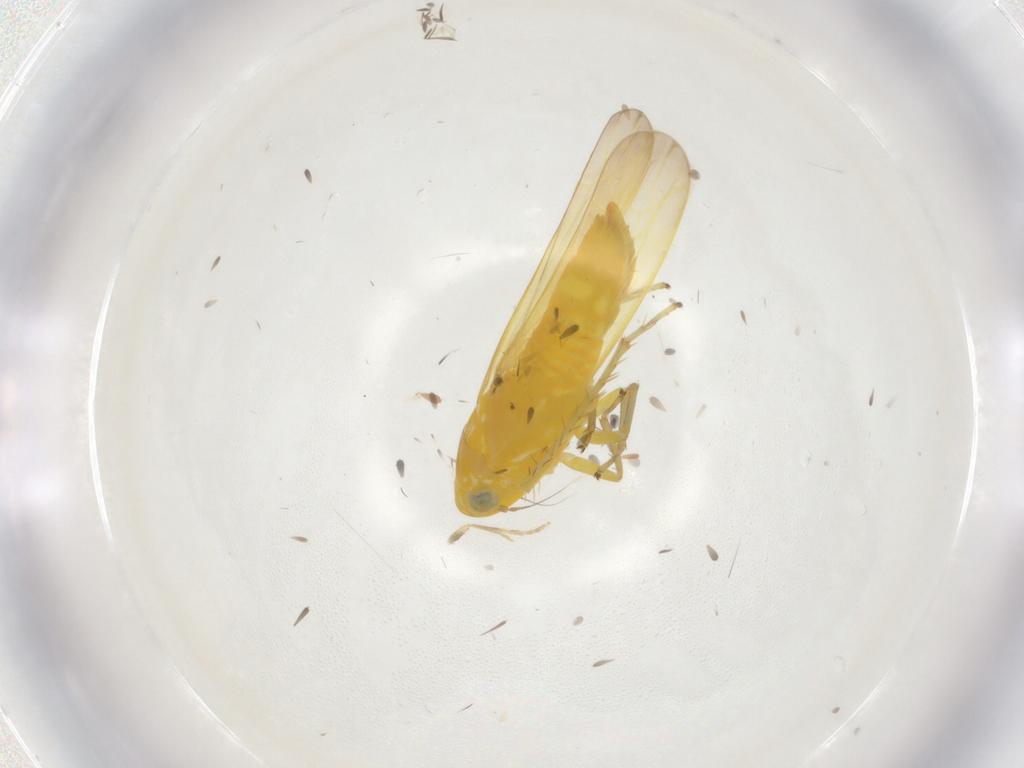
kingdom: Animalia
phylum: Arthropoda
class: Insecta
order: Hemiptera
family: Cicadellidae
